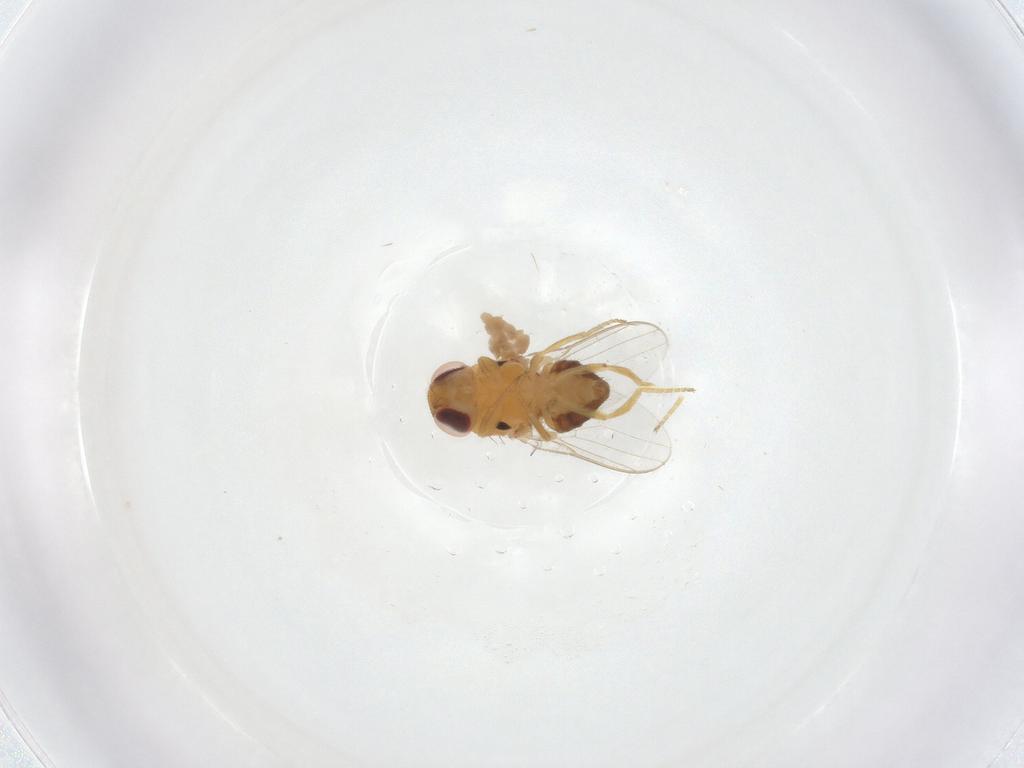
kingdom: Animalia
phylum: Arthropoda
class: Insecta
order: Diptera
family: Chloropidae
